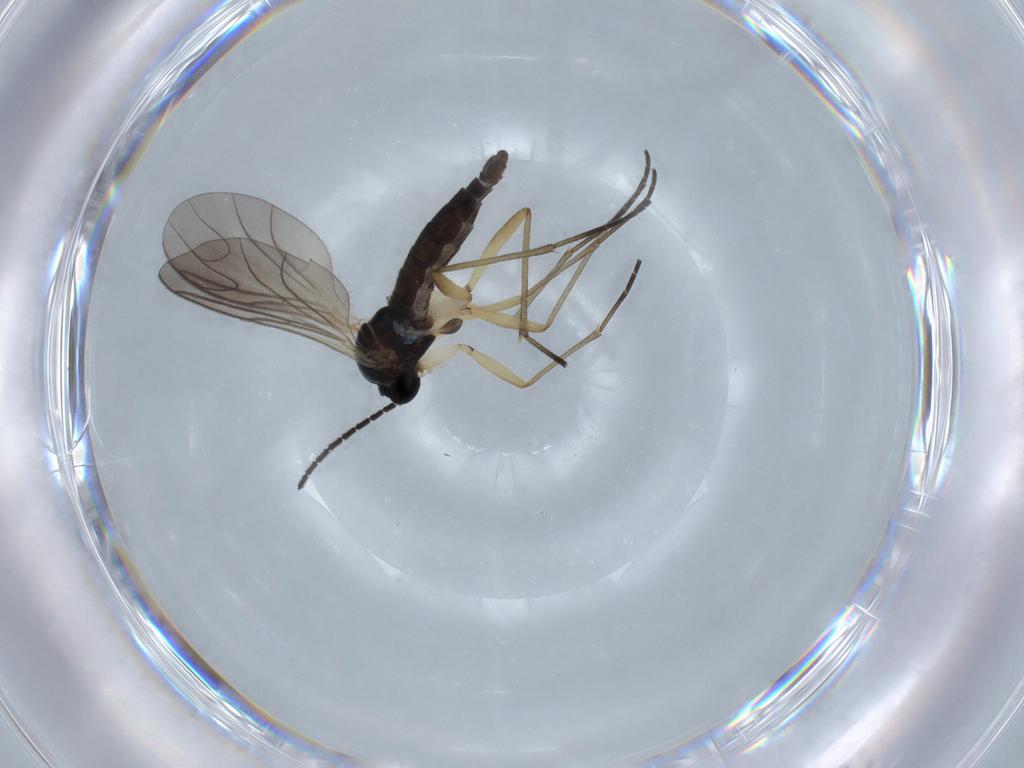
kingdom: Animalia
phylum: Arthropoda
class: Insecta
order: Diptera
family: Sciaridae
